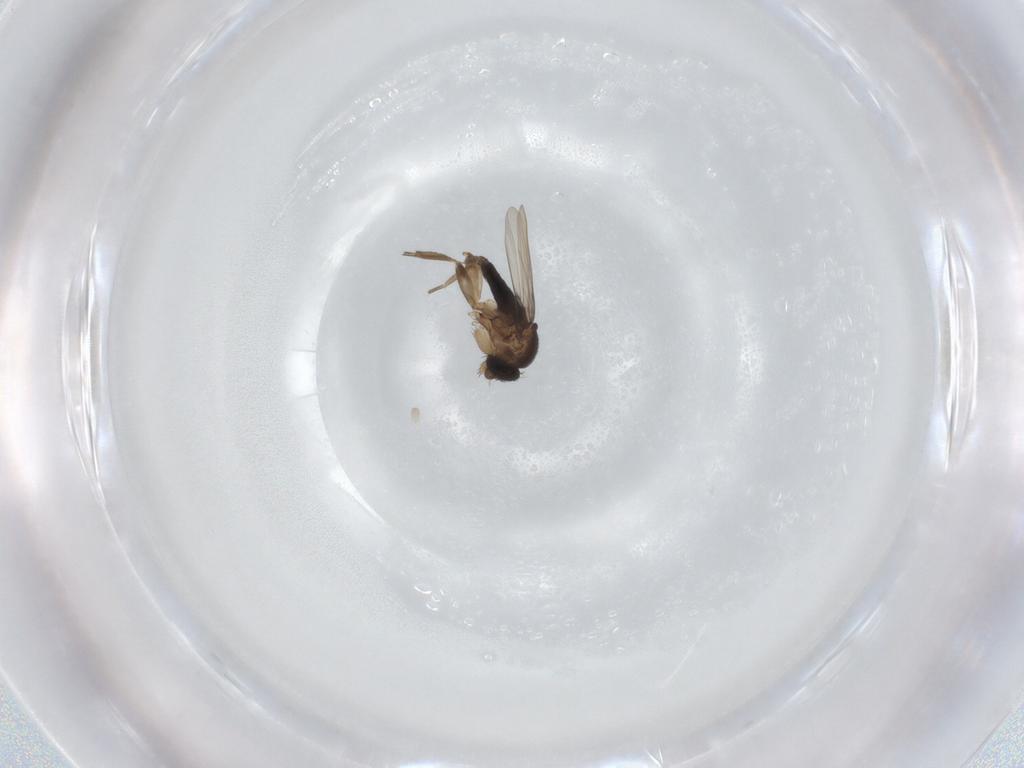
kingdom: Animalia
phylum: Arthropoda
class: Insecta
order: Diptera
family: Phoridae
